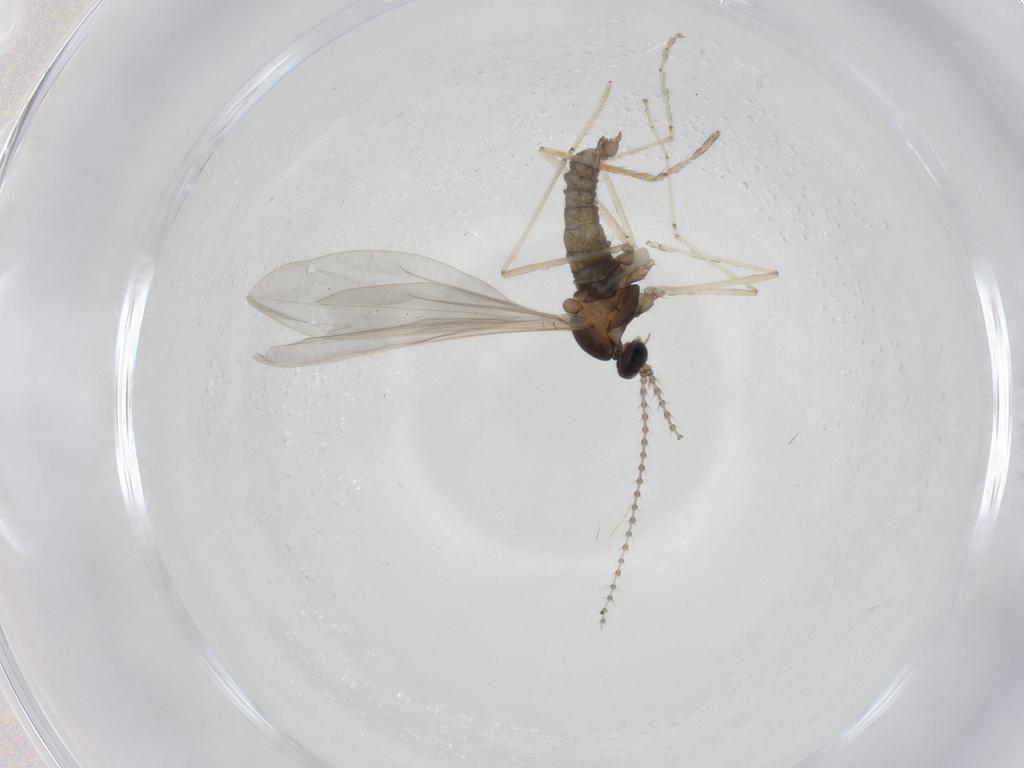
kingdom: Animalia
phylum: Arthropoda
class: Insecta
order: Diptera
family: Cecidomyiidae
